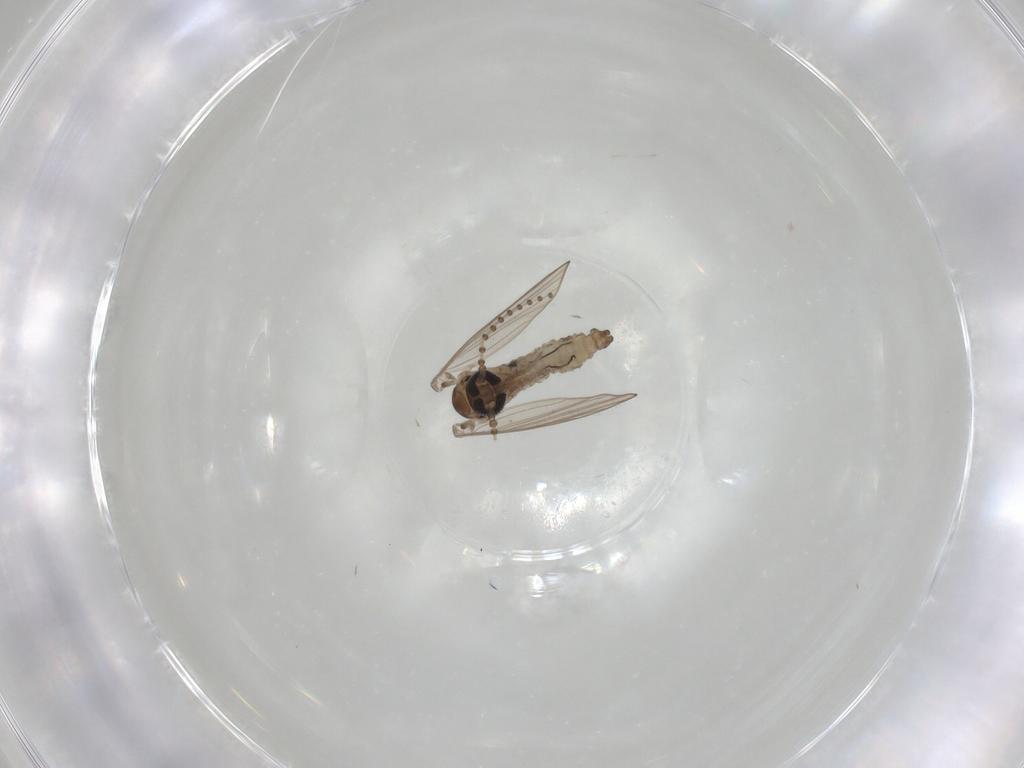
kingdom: Animalia
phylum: Arthropoda
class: Insecta
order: Diptera
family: Psychodidae
